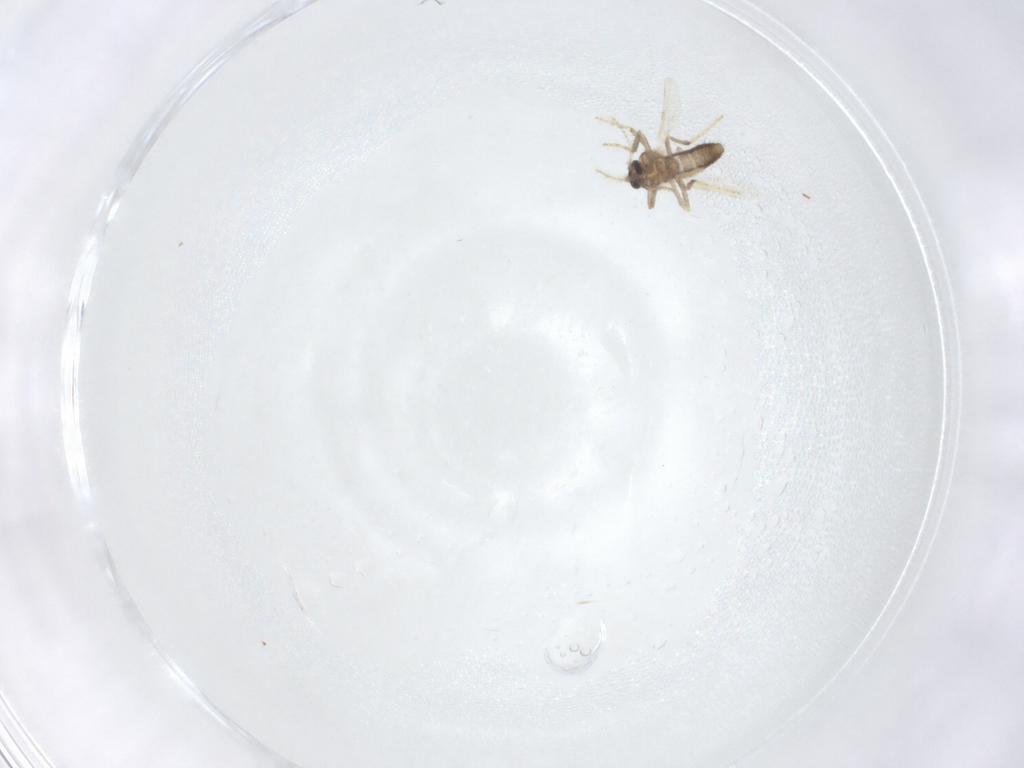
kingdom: Animalia
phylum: Arthropoda
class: Insecta
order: Diptera
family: Ceratopogonidae
